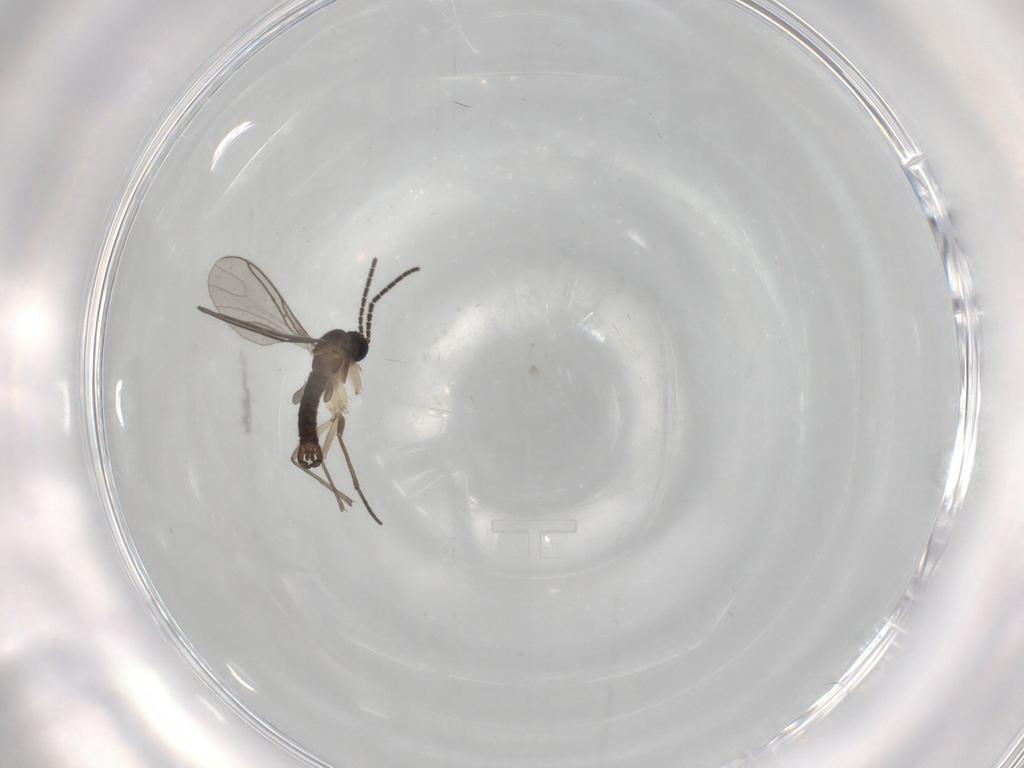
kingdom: Animalia
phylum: Arthropoda
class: Insecta
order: Diptera
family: Sciaridae
